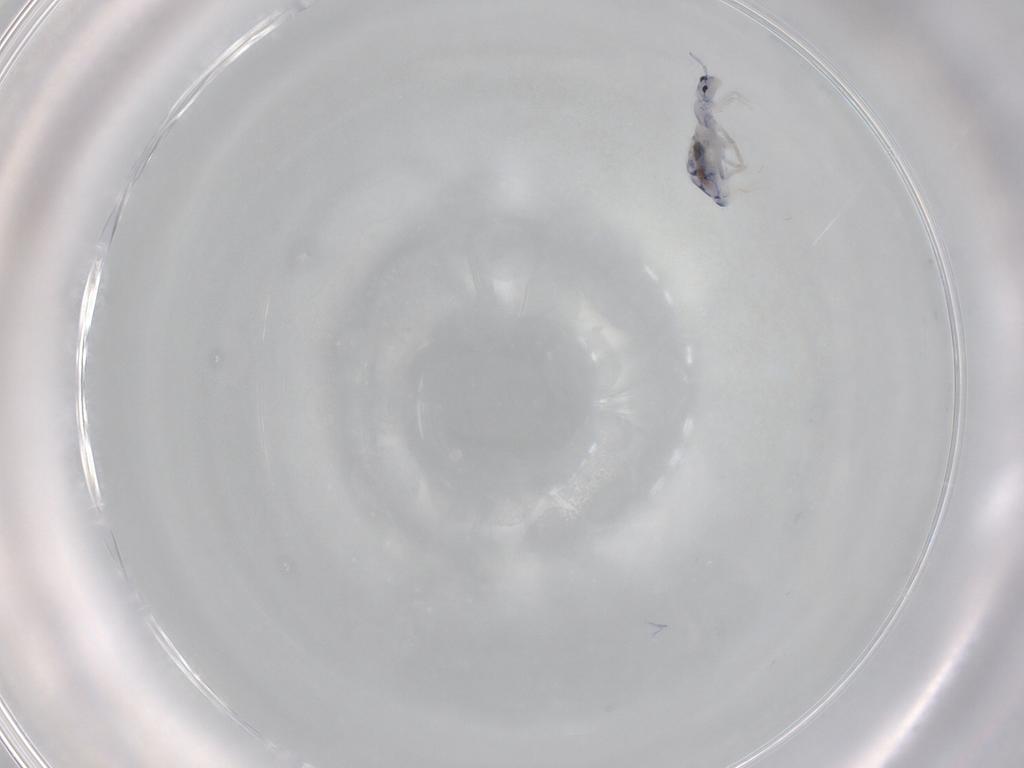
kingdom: Animalia
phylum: Arthropoda
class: Collembola
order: Entomobryomorpha
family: Entomobryidae
